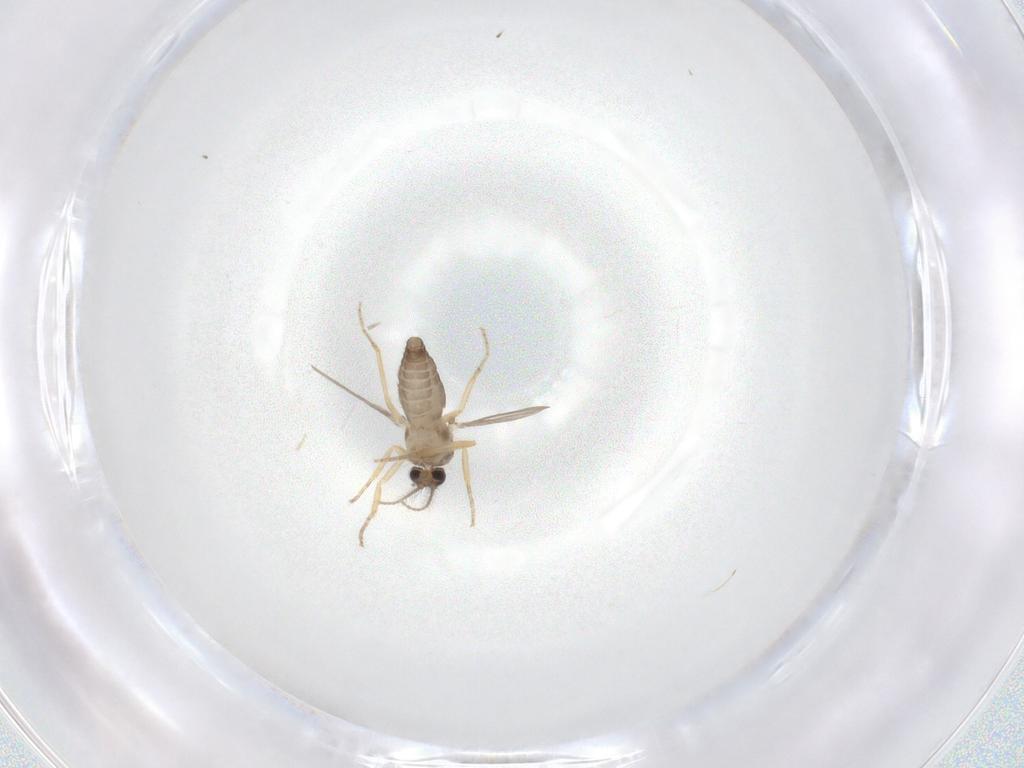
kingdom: Animalia
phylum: Arthropoda
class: Insecta
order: Diptera
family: Ceratopogonidae
